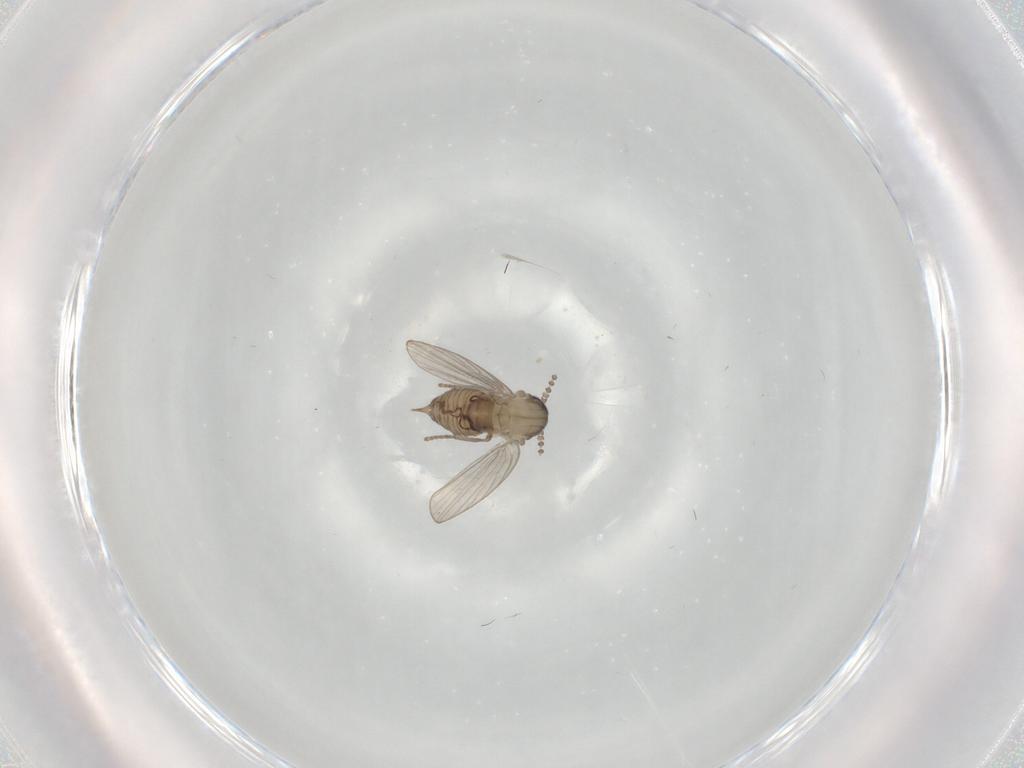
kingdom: Animalia
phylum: Arthropoda
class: Insecta
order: Diptera
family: Psychodidae
